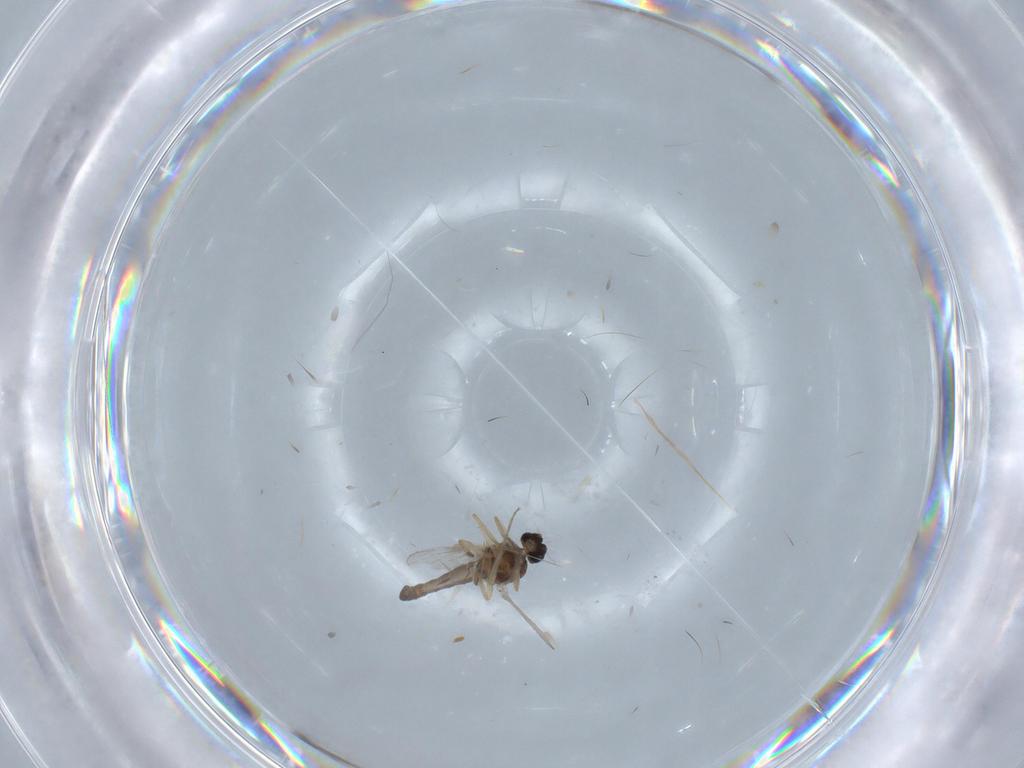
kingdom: Animalia
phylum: Arthropoda
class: Insecta
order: Diptera
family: Ceratopogonidae
